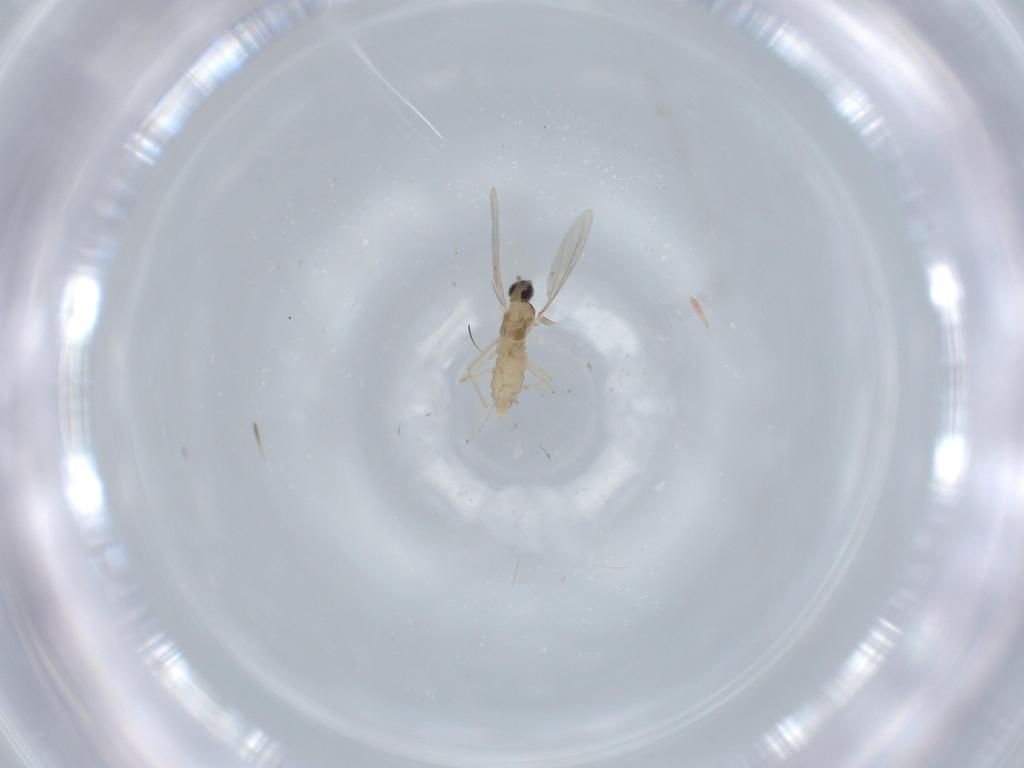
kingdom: Animalia
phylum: Arthropoda
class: Insecta
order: Diptera
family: Cecidomyiidae
